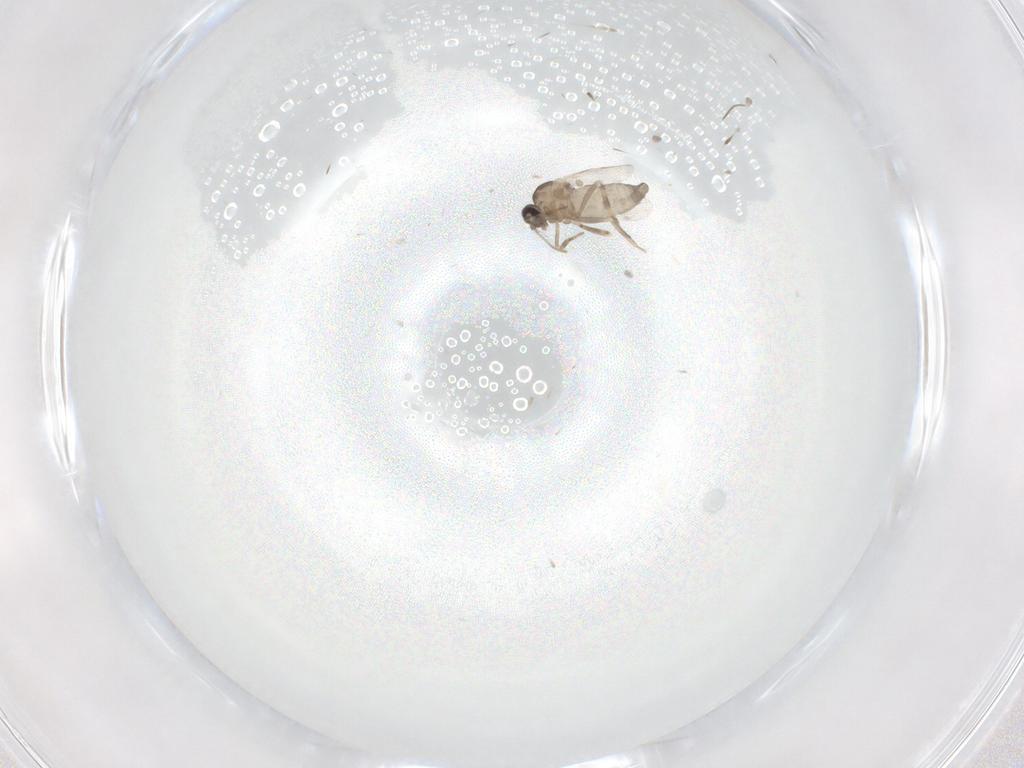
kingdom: Animalia
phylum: Arthropoda
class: Insecta
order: Diptera
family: Ceratopogonidae
